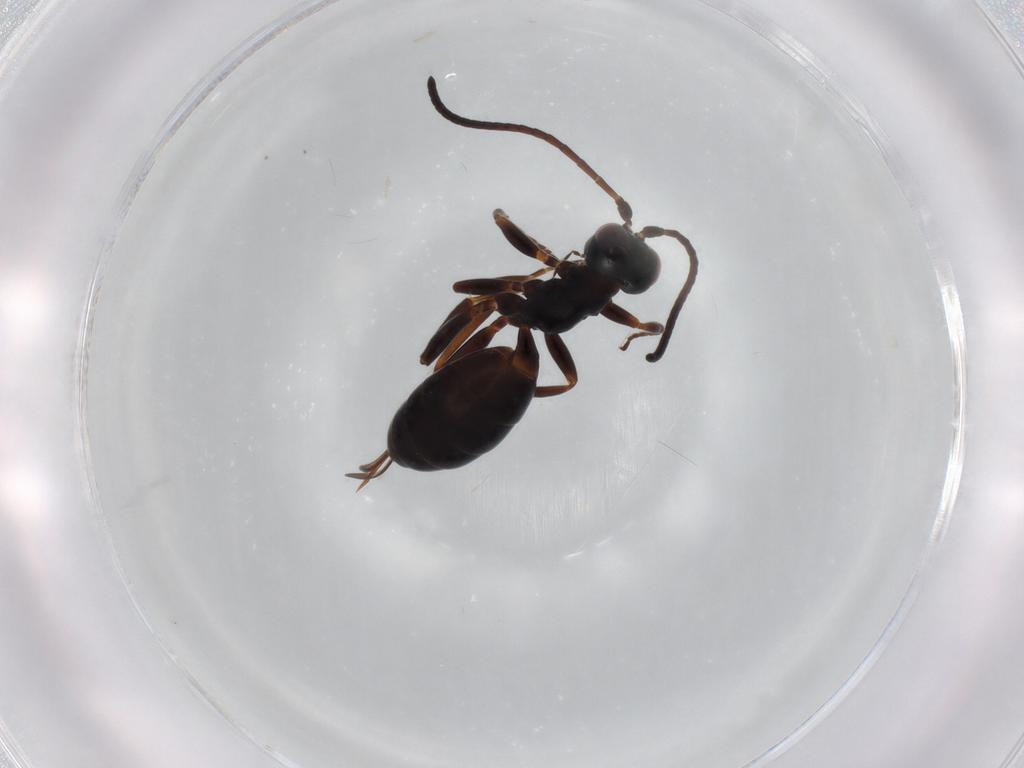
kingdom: Animalia
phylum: Arthropoda
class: Insecta
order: Hymenoptera
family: Ichneumonidae
